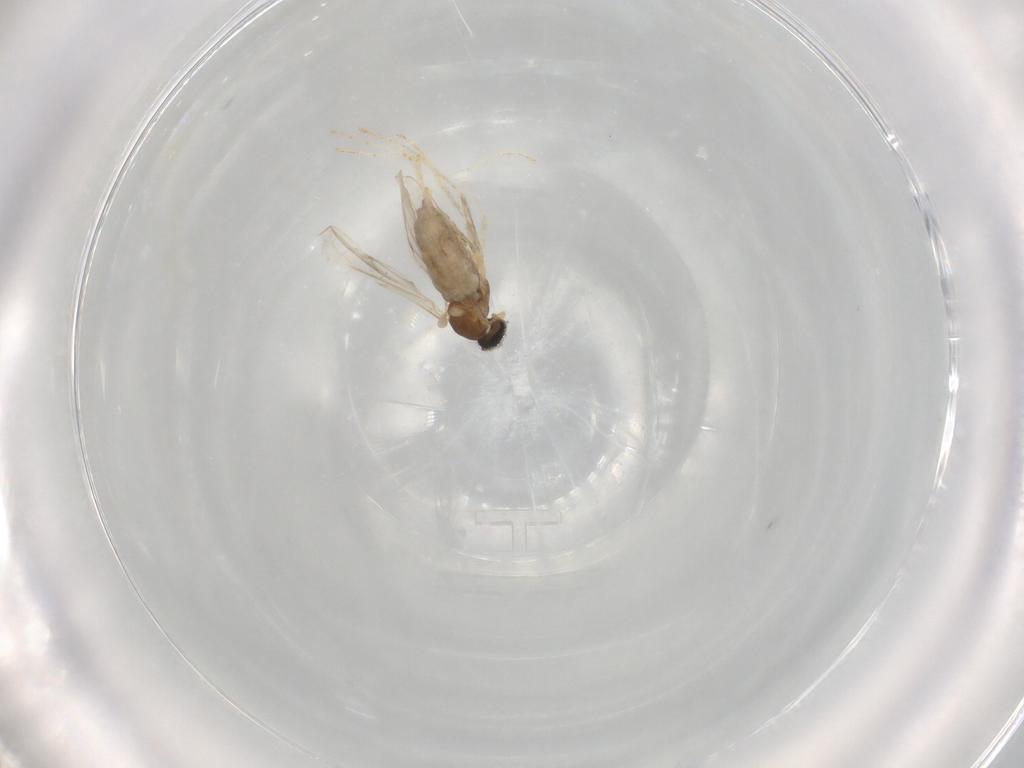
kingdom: Animalia
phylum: Arthropoda
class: Insecta
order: Diptera
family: Cecidomyiidae
